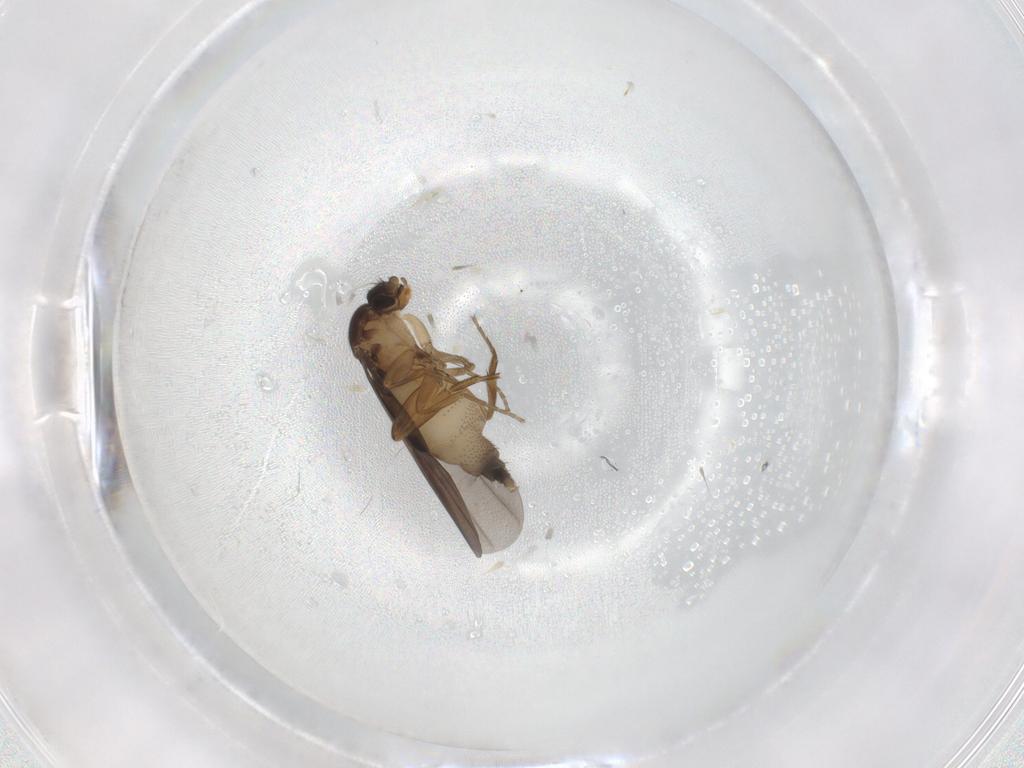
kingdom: Animalia
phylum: Arthropoda
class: Insecta
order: Diptera
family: Phoridae
